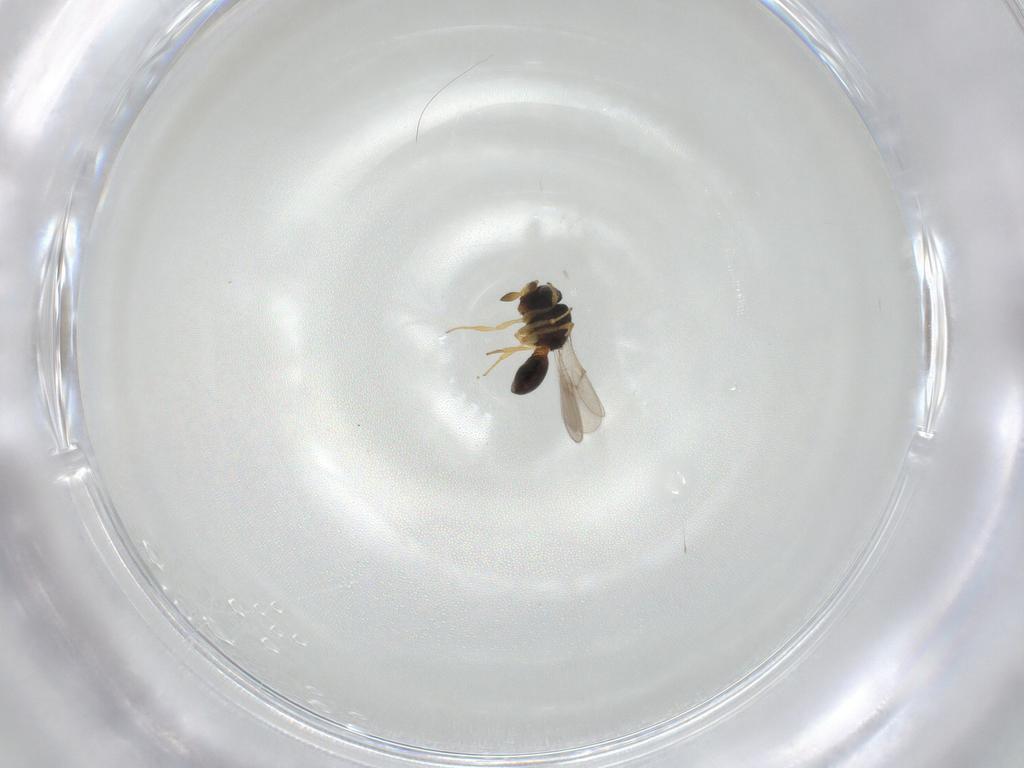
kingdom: Animalia
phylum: Arthropoda
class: Insecta
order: Hymenoptera
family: Scelionidae
